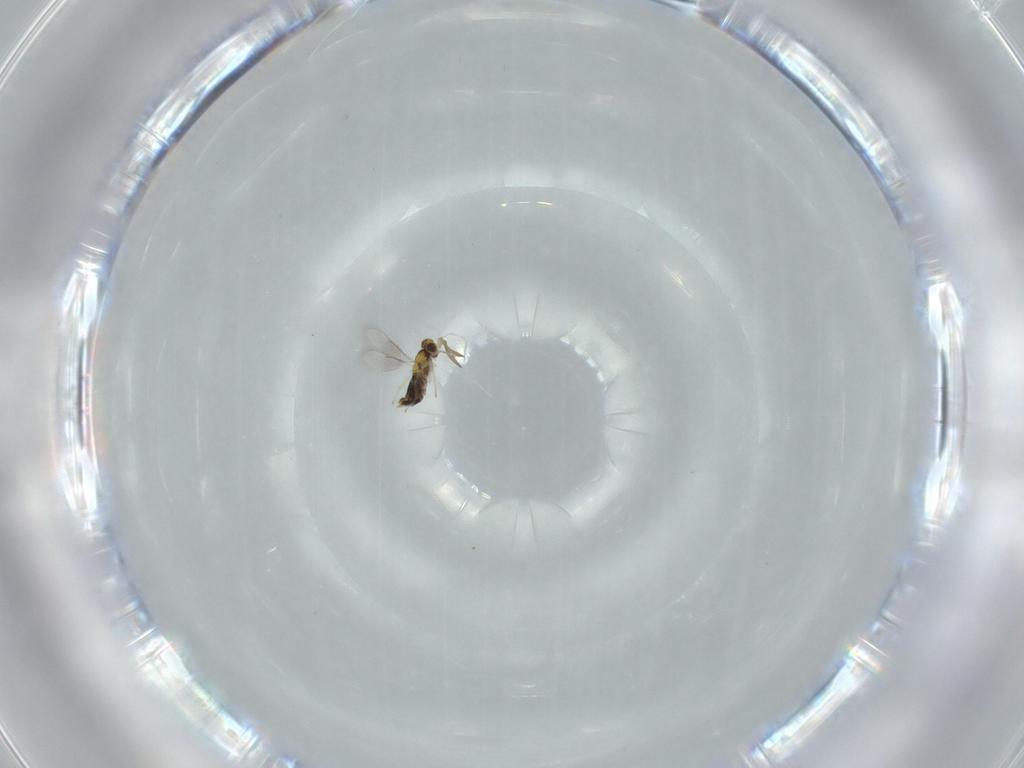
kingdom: Animalia
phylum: Arthropoda
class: Insecta
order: Hymenoptera
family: Aphelinidae
